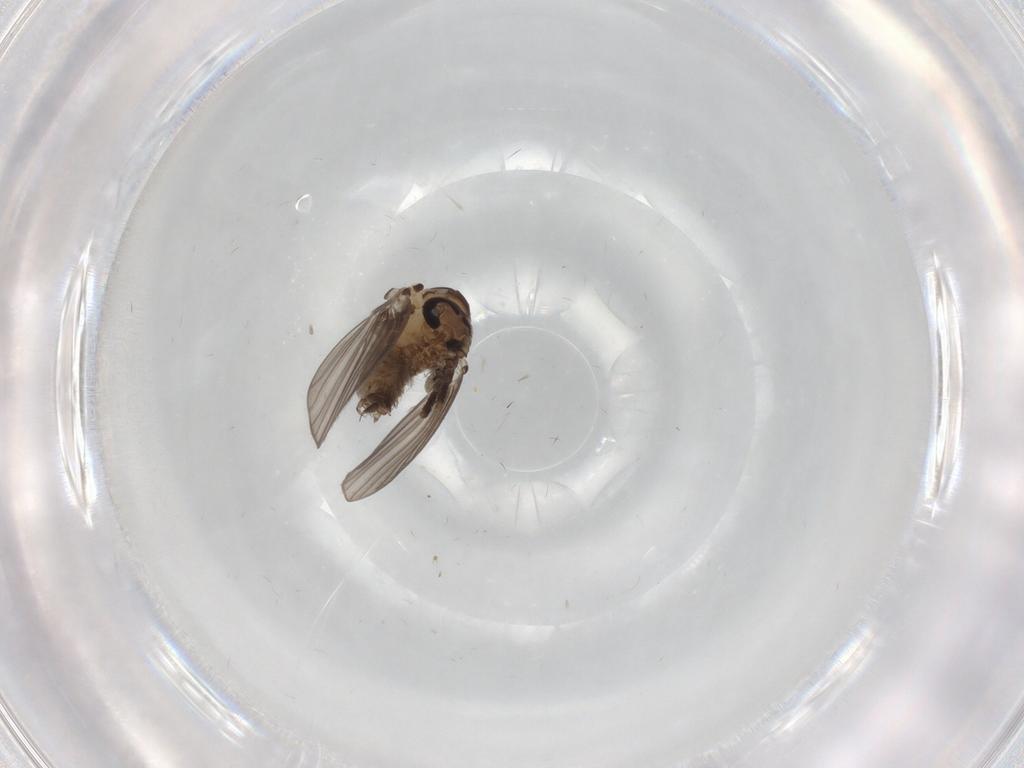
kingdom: Animalia
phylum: Arthropoda
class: Insecta
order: Diptera
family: Psychodidae
